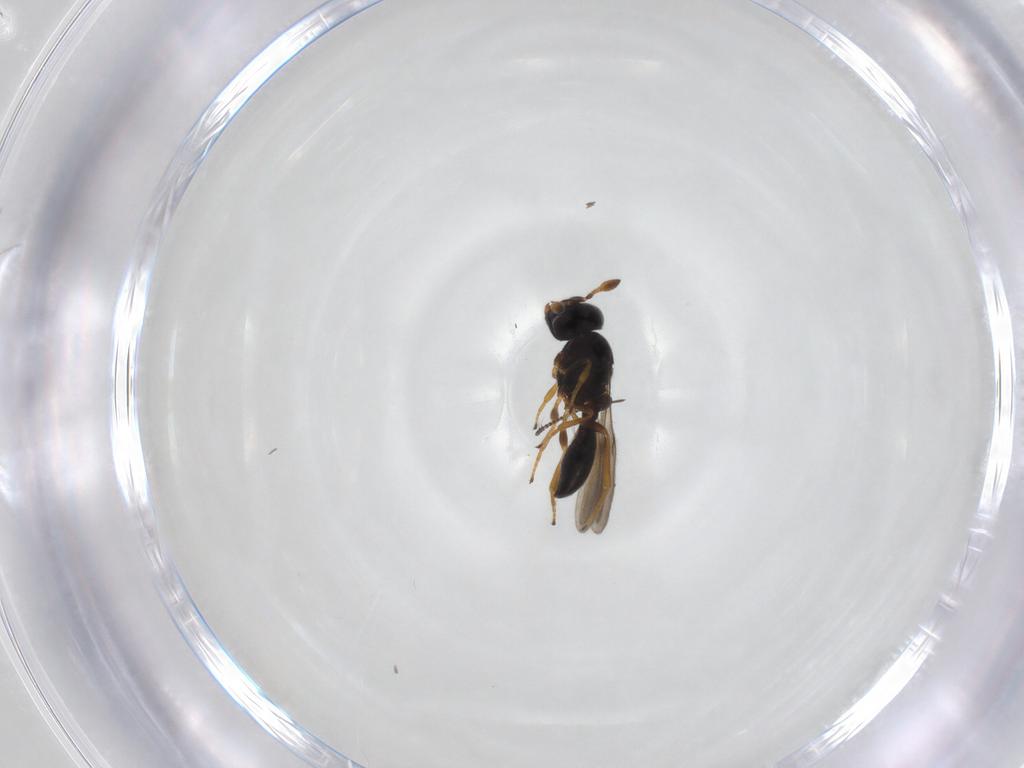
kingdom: Animalia
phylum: Arthropoda
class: Insecta
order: Hymenoptera
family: Scelionidae
